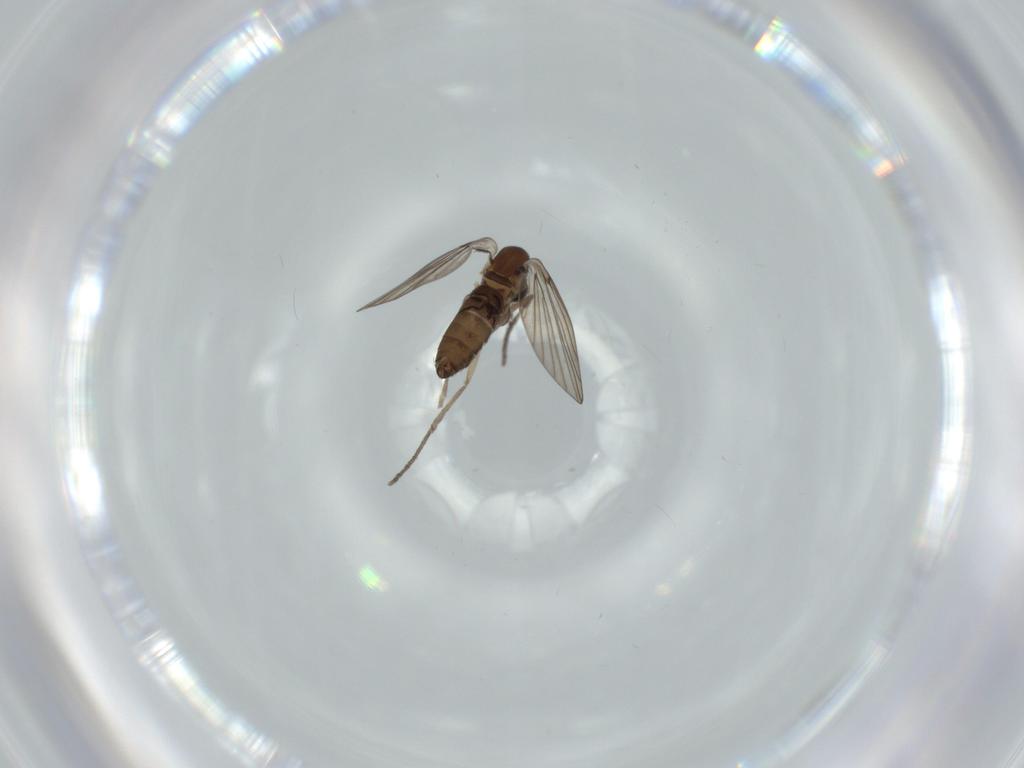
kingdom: Animalia
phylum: Arthropoda
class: Insecta
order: Diptera
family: Psychodidae
